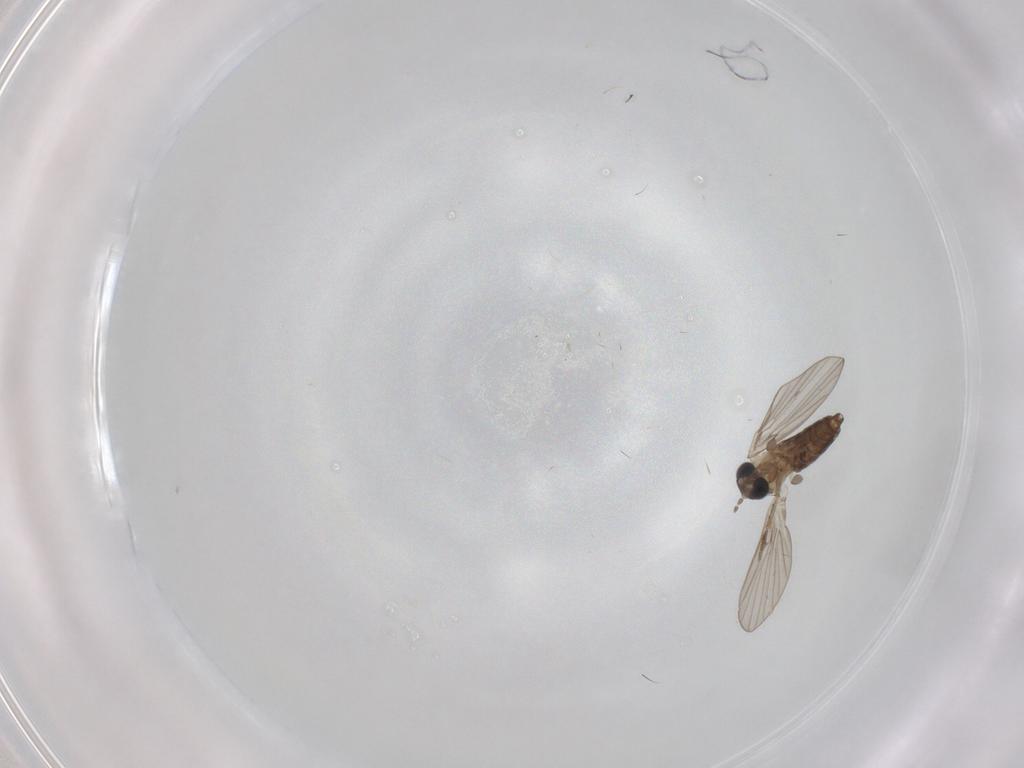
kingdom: Animalia
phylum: Arthropoda
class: Insecta
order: Diptera
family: Psychodidae
